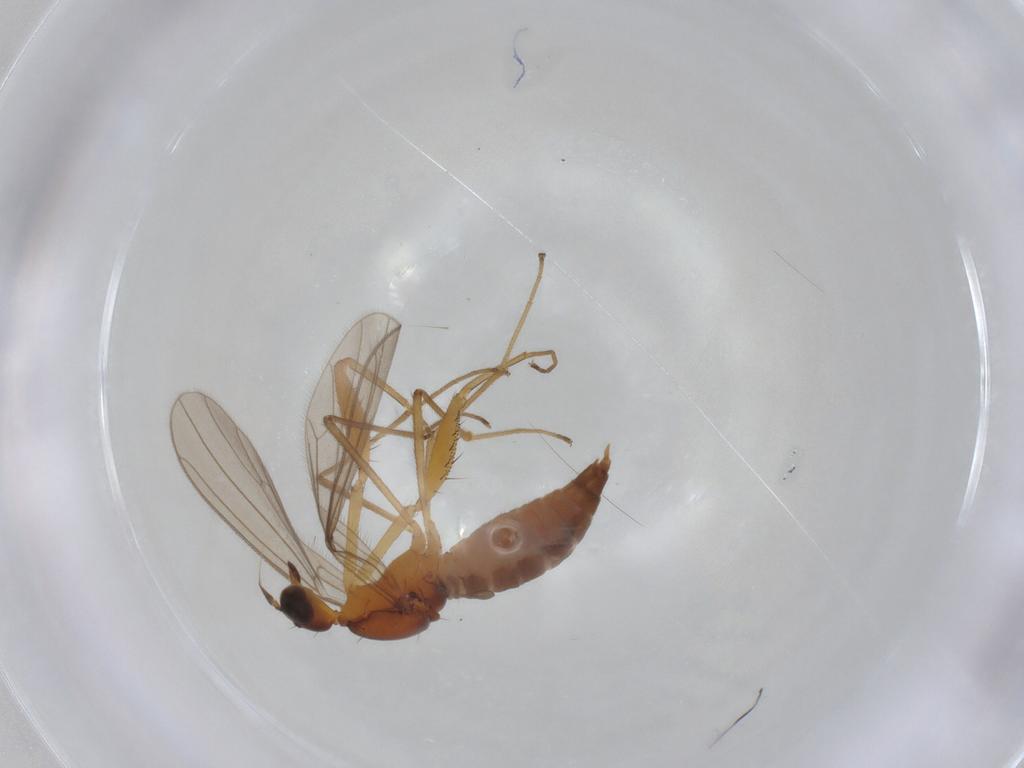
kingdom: Animalia
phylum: Arthropoda
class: Insecta
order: Diptera
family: Empididae
